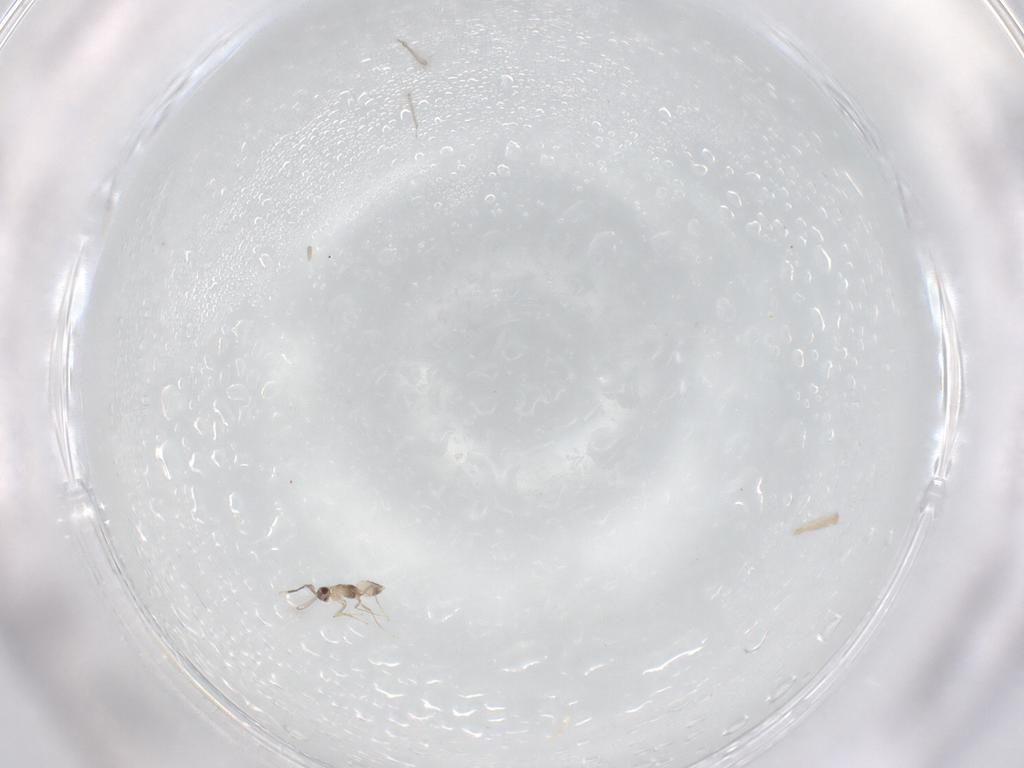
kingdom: Animalia
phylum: Arthropoda
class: Insecta
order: Hymenoptera
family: Mymaridae
